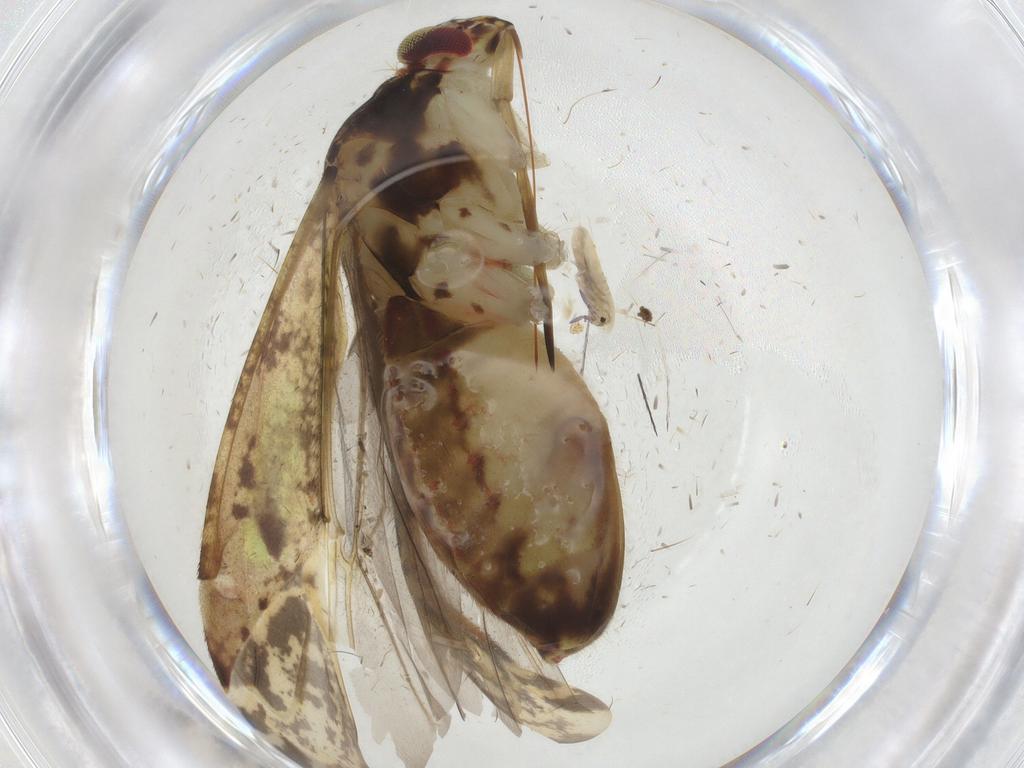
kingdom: Animalia
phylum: Arthropoda
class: Insecta
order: Hemiptera
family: Miridae
